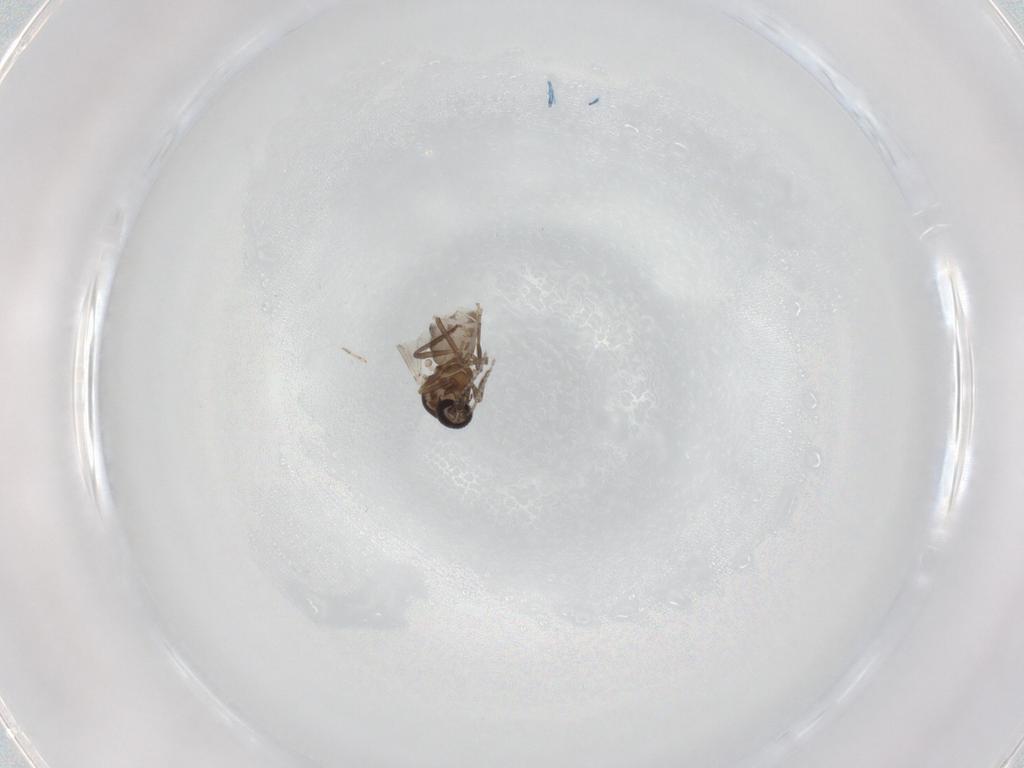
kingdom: Animalia
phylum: Arthropoda
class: Insecta
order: Diptera
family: Ceratopogonidae
